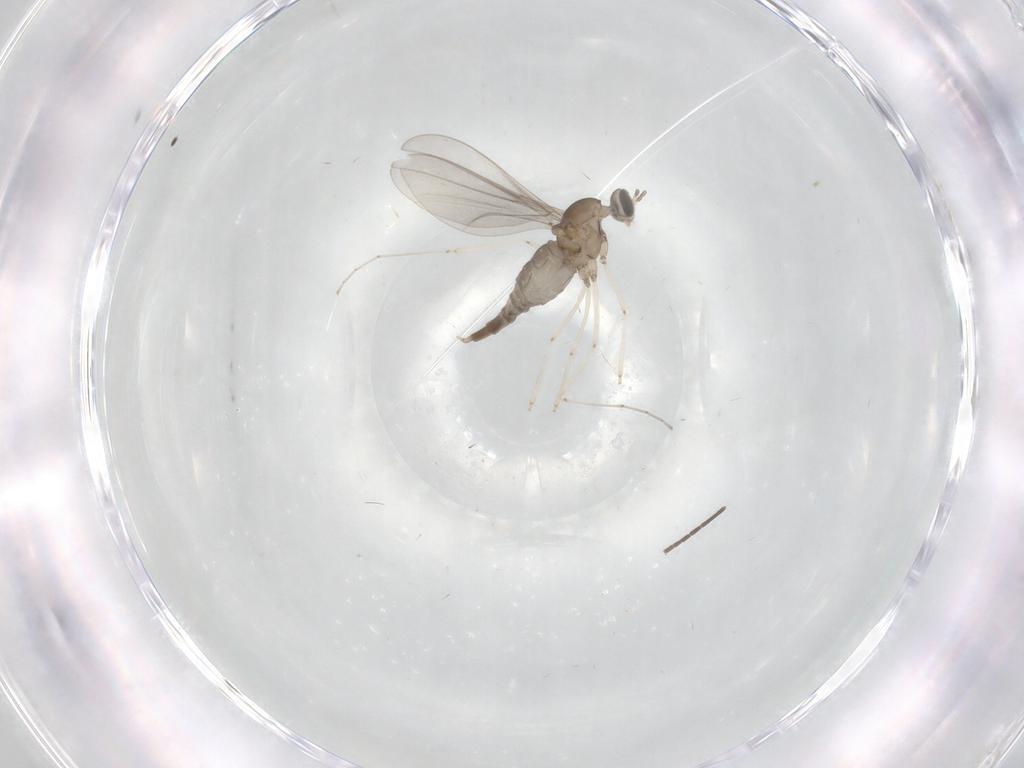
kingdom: Animalia
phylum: Arthropoda
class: Insecta
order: Diptera
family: Cecidomyiidae
